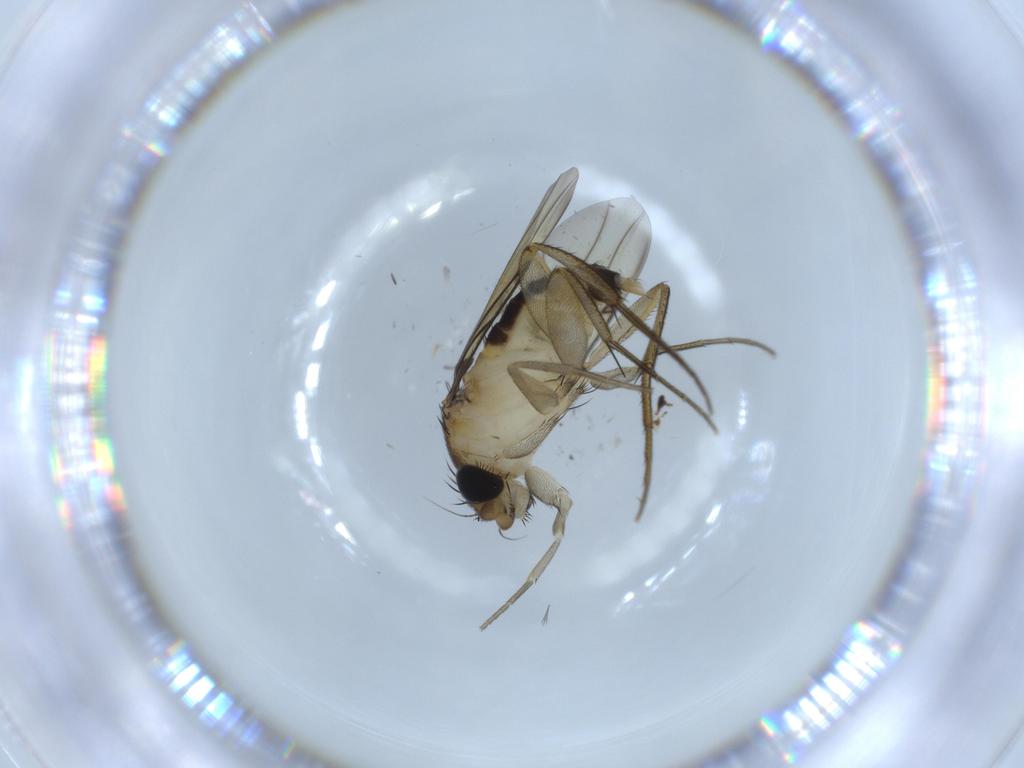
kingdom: Animalia
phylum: Arthropoda
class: Insecta
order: Diptera
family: Phoridae
